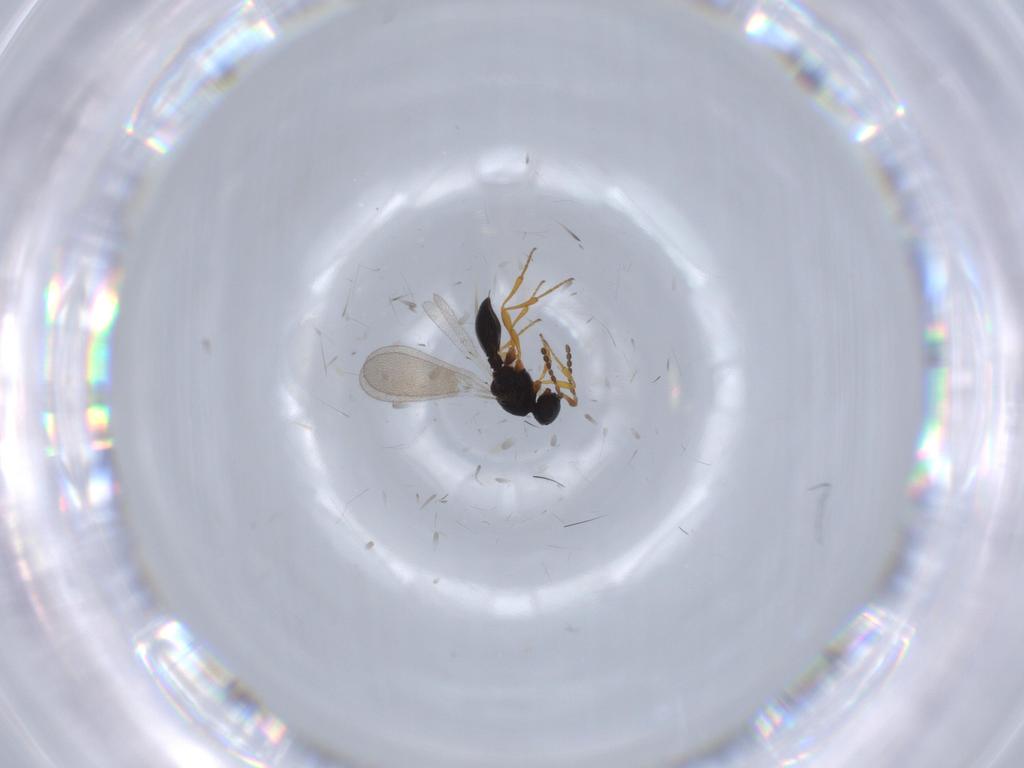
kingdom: Animalia
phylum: Arthropoda
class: Insecta
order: Diptera
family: Mythicomyiidae
